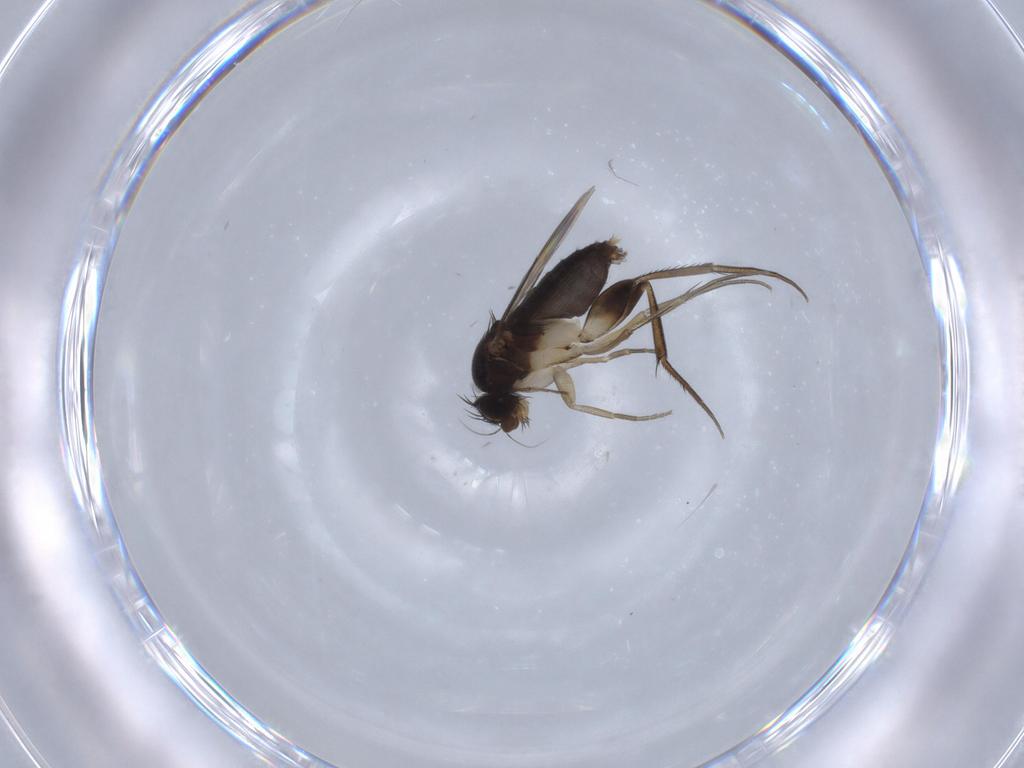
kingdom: Animalia
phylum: Arthropoda
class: Insecta
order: Diptera
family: Phoridae
